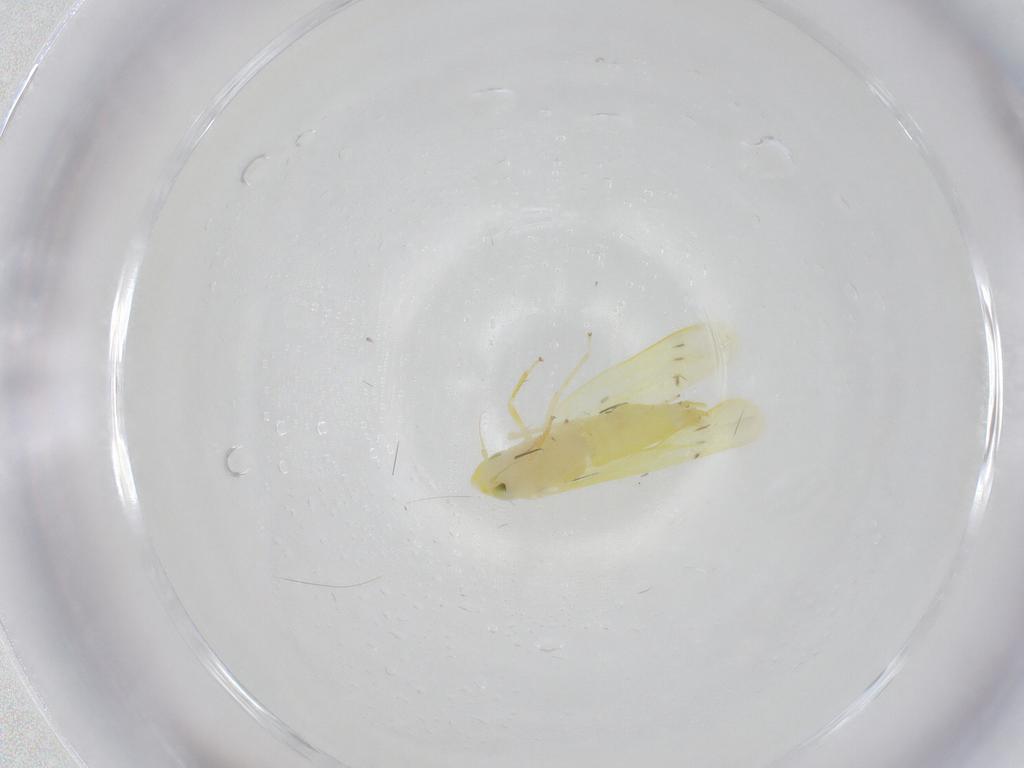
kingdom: Animalia
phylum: Arthropoda
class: Insecta
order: Hemiptera
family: Cicadellidae
